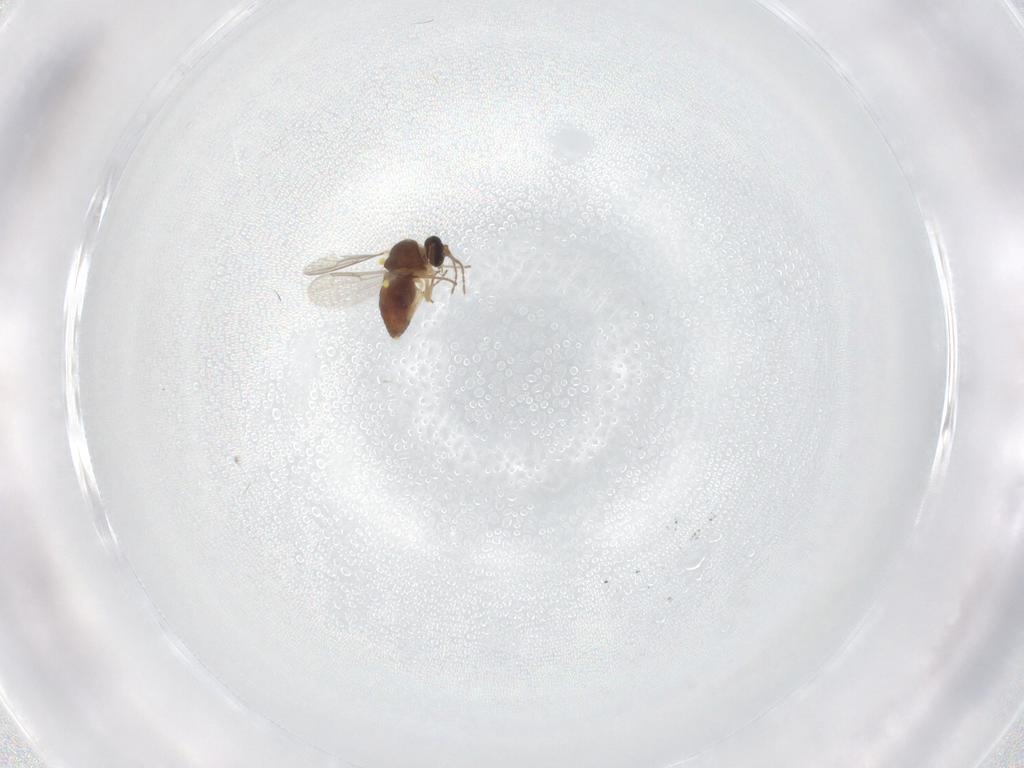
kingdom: Animalia
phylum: Arthropoda
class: Insecta
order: Diptera
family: Ceratopogonidae
